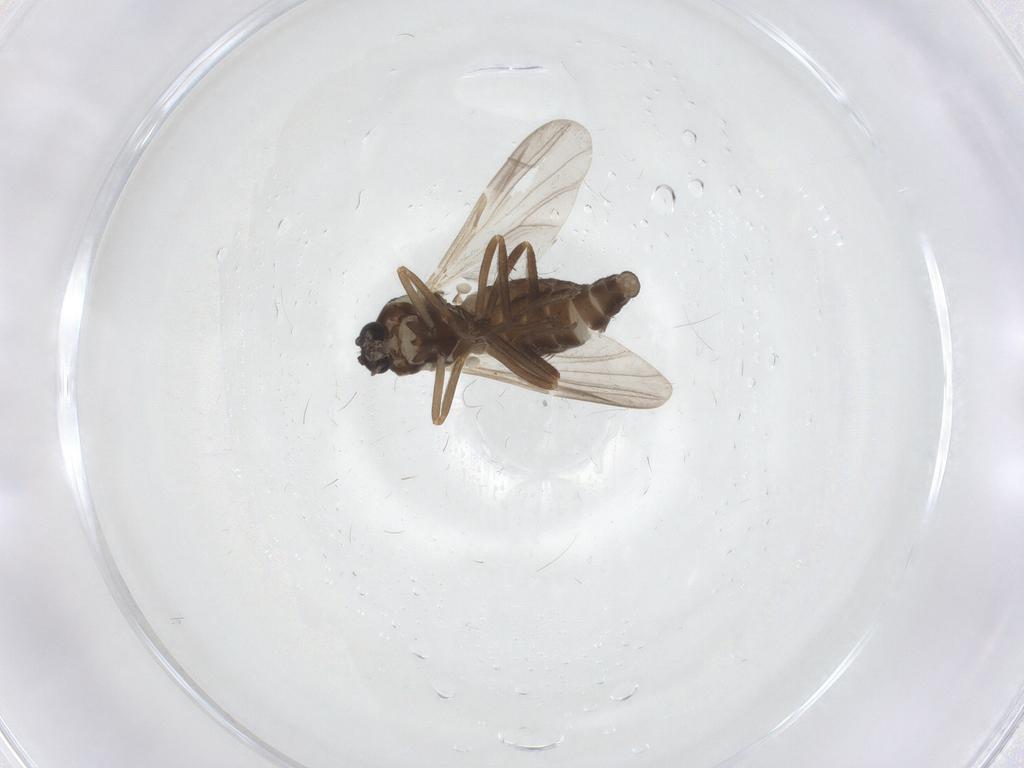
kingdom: Animalia
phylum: Arthropoda
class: Insecta
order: Diptera
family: Ceratopogonidae
